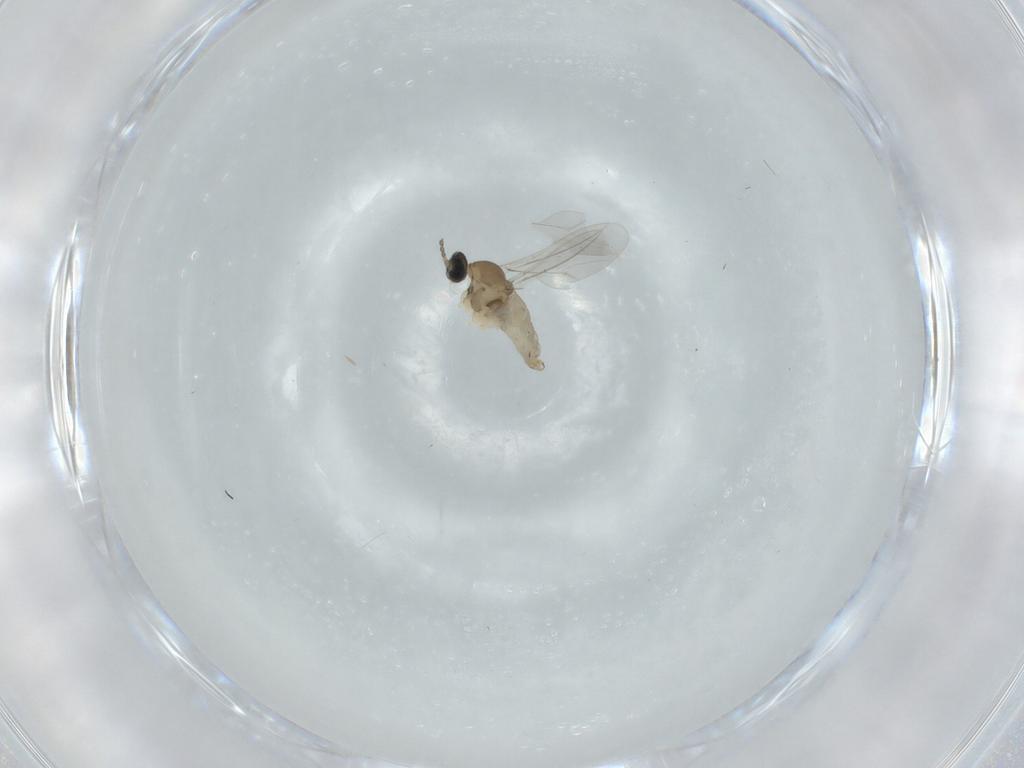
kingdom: Animalia
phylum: Arthropoda
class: Insecta
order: Diptera
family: Cecidomyiidae
